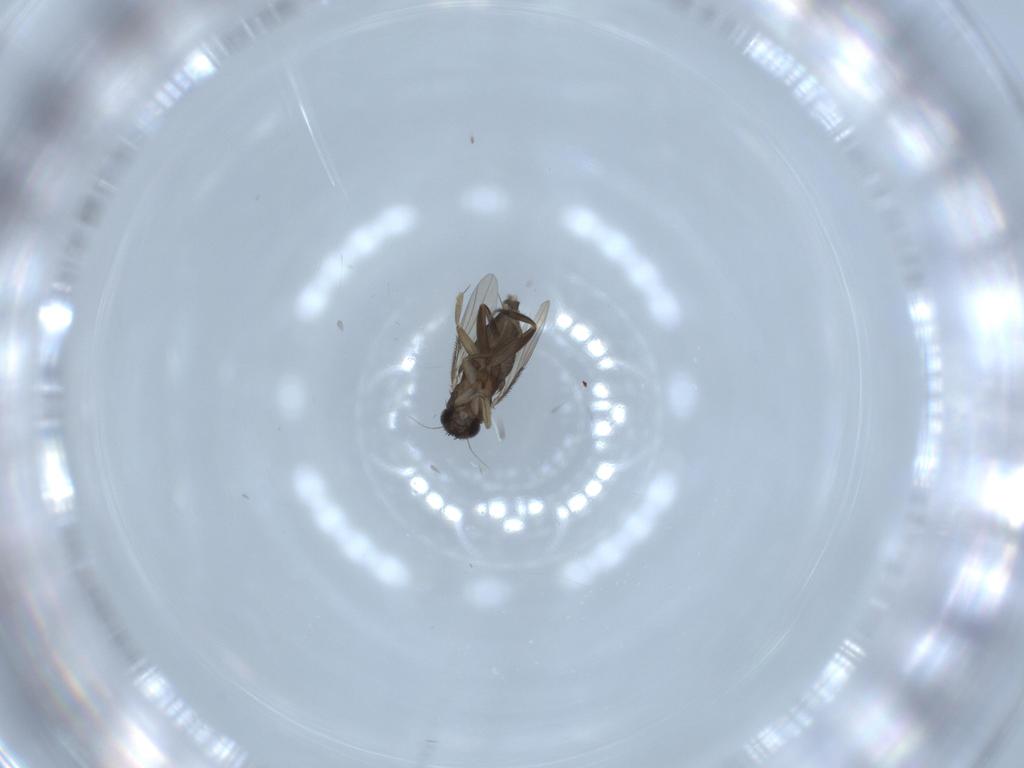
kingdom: Animalia
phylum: Arthropoda
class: Insecta
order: Diptera
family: Phoridae
